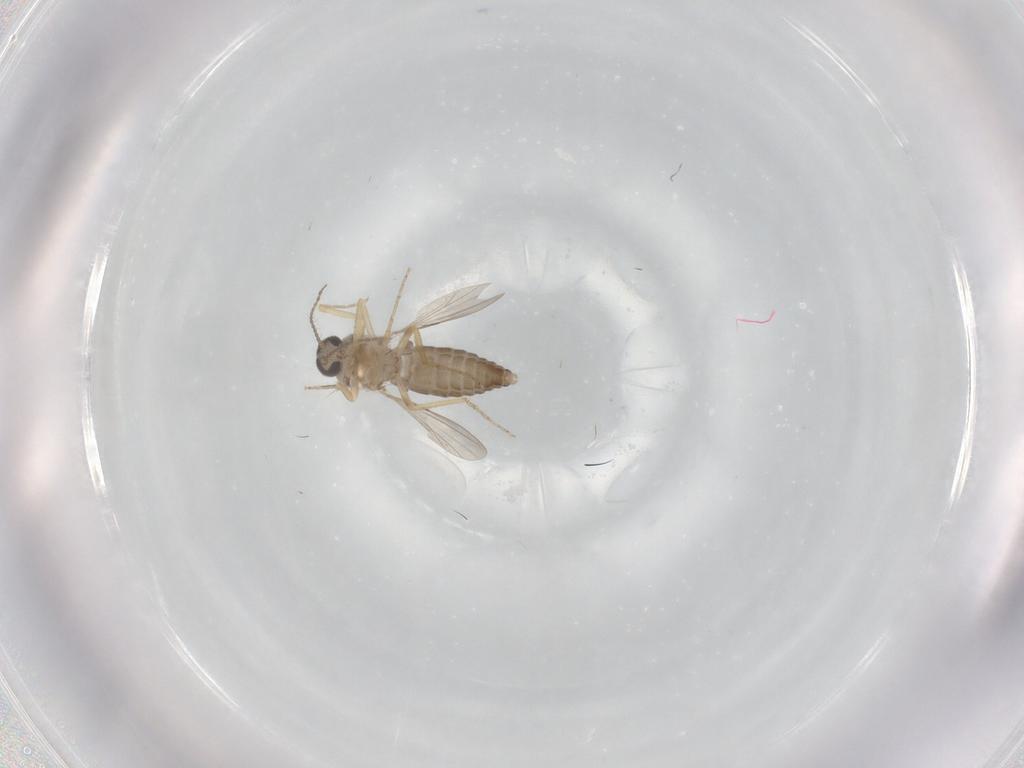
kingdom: Animalia
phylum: Arthropoda
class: Insecta
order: Diptera
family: Ceratopogonidae
